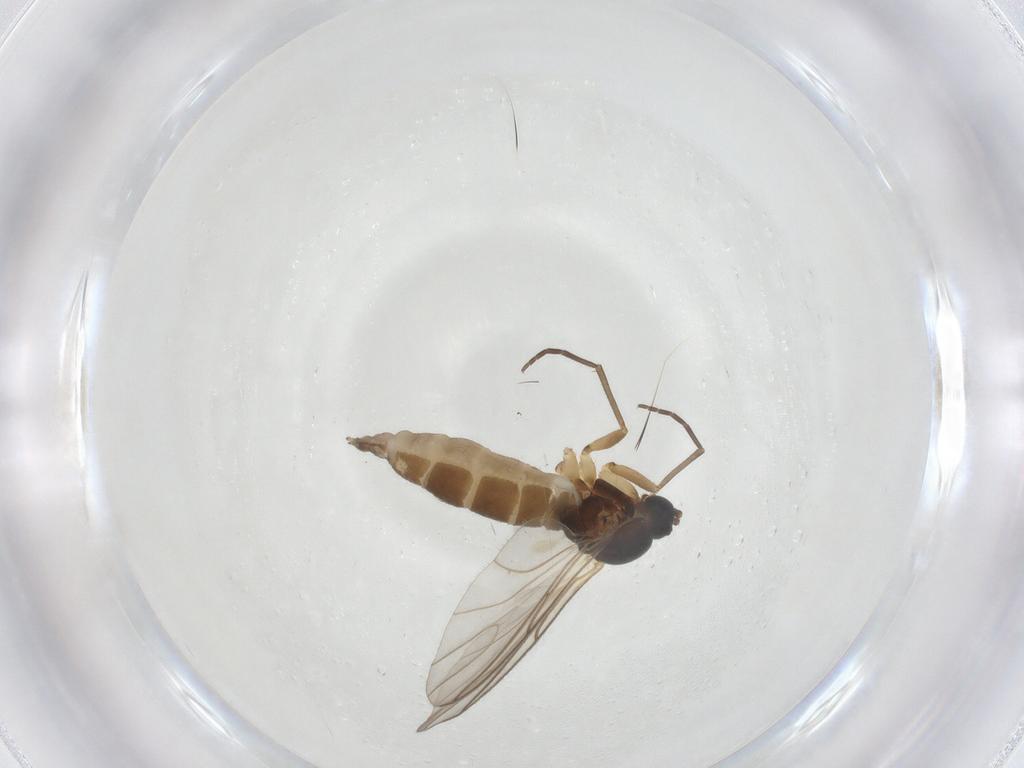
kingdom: Animalia
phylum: Arthropoda
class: Insecta
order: Diptera
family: Sciaridae
